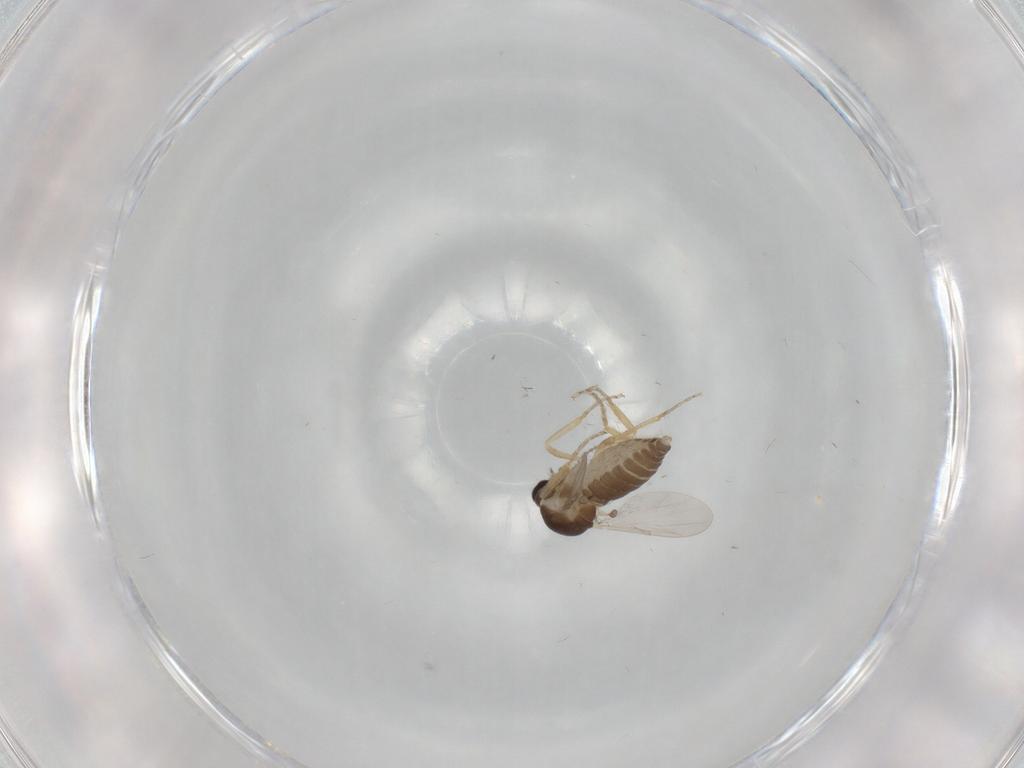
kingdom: Animalia
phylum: Arthropoda
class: Insecta
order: Diptera
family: Ceratopogonidae
